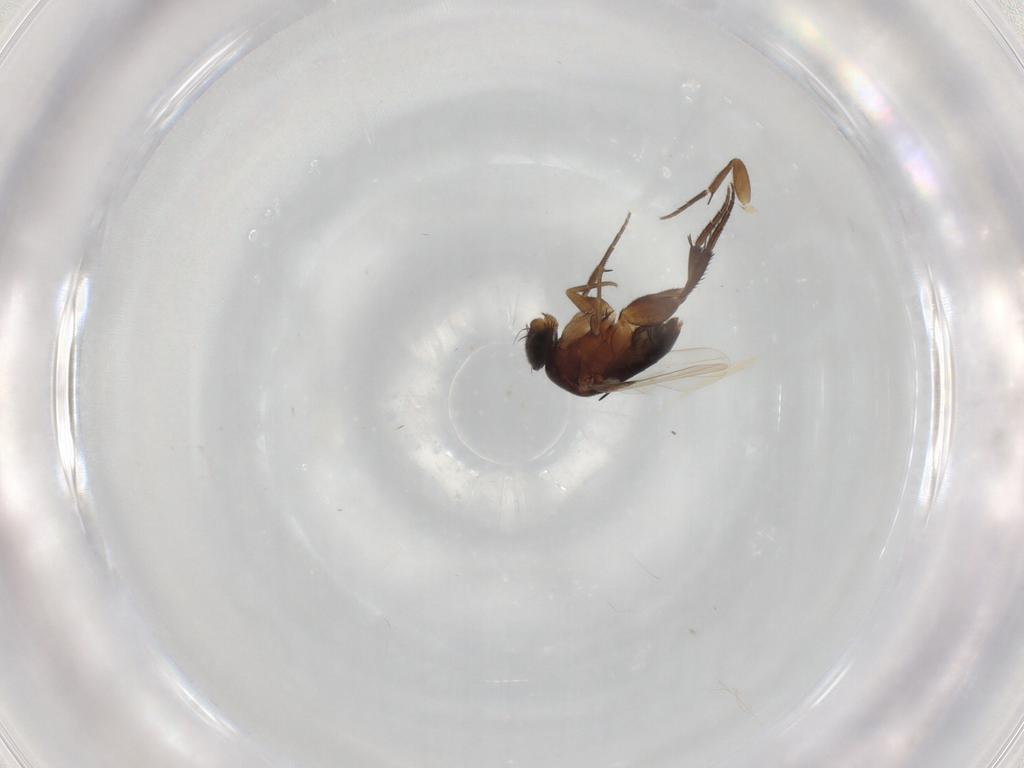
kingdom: Animalia
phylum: Arthropoda
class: Insecta
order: Diptera
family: Phoridae
